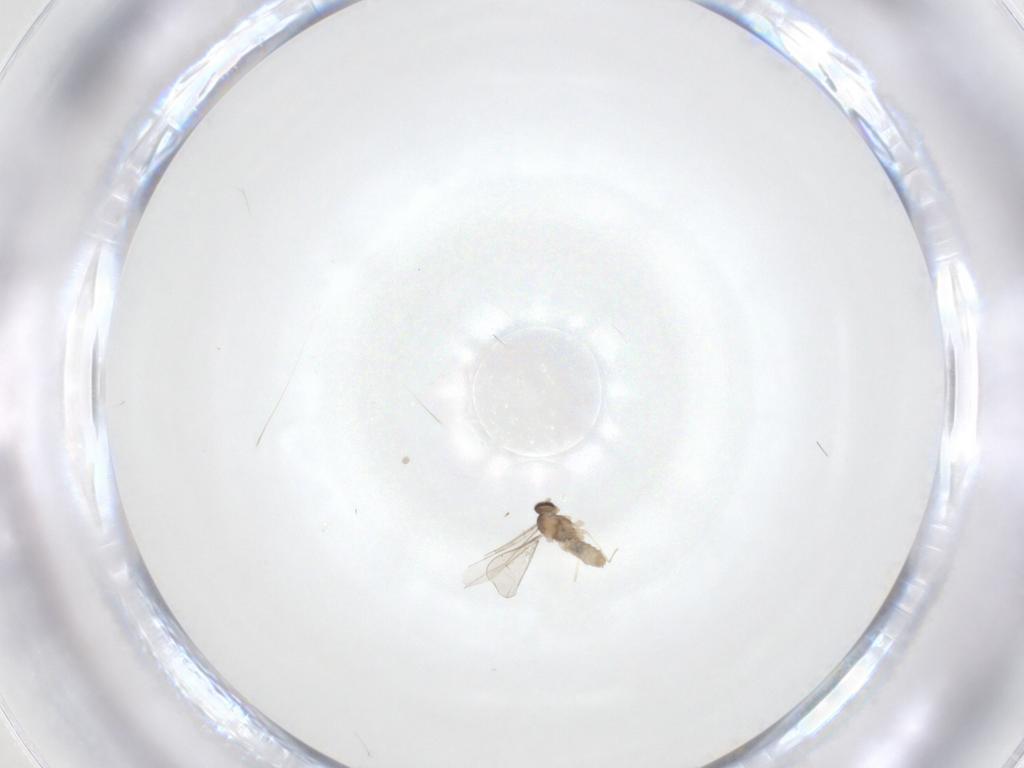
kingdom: Animalia
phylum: Arthropoda
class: Insecta
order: Diptera
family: Cecidomyiidae
